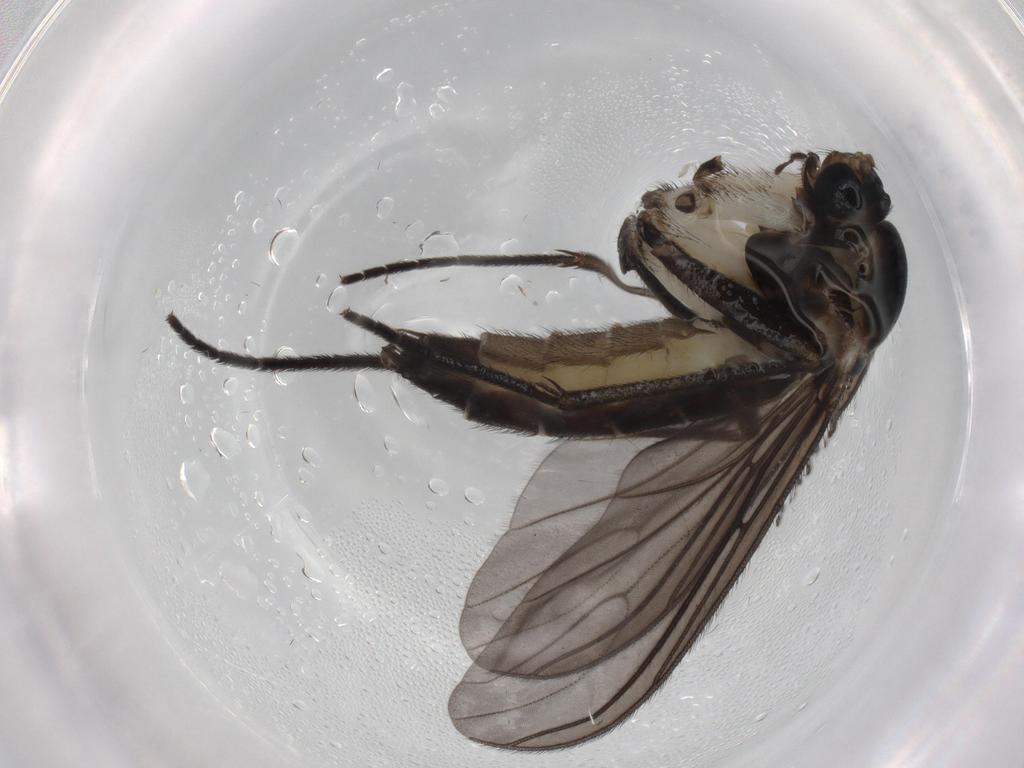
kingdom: Animalia
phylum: Arthropoda
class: Insecta
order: Diptera
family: Sciaridae
